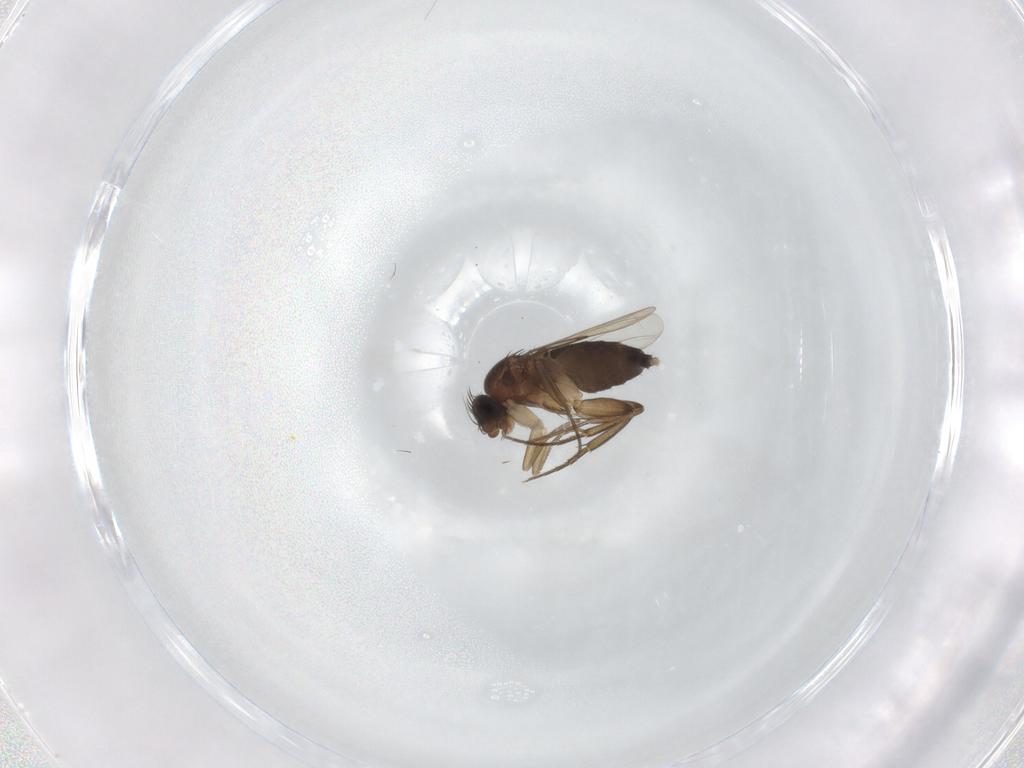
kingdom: Animalia
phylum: Arthropoda
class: Insecta
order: Diptera
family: Phoridae
